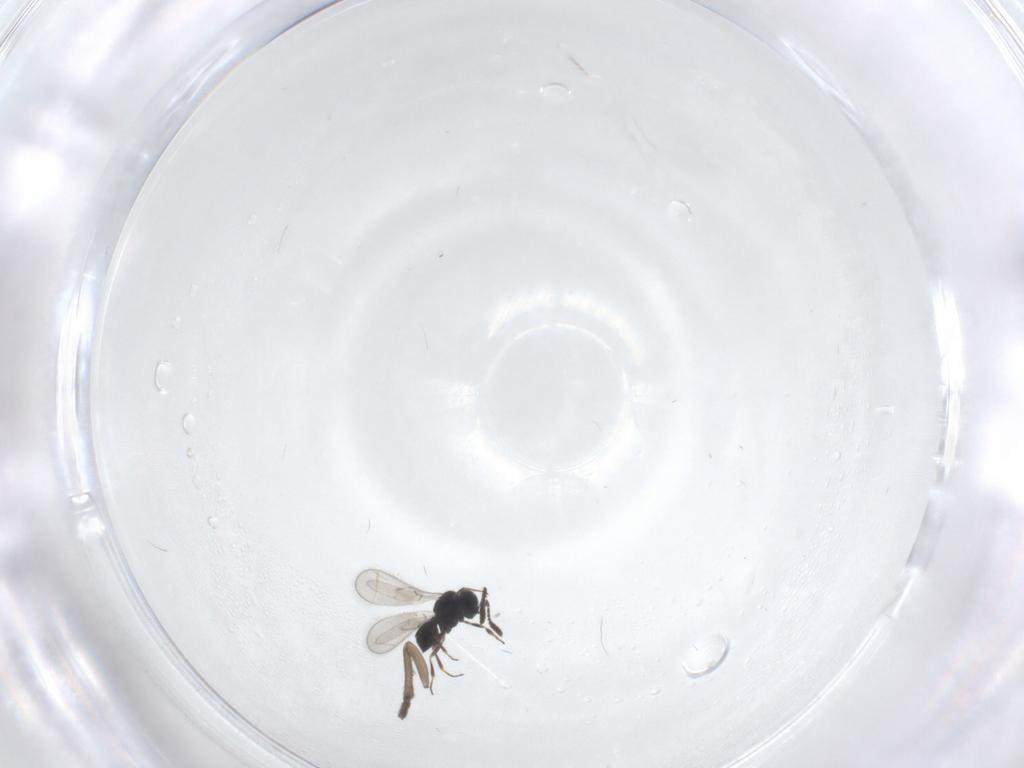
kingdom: Animalia
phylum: Arthropoda
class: Insecta
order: Hymenoptera
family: Scelionidae
